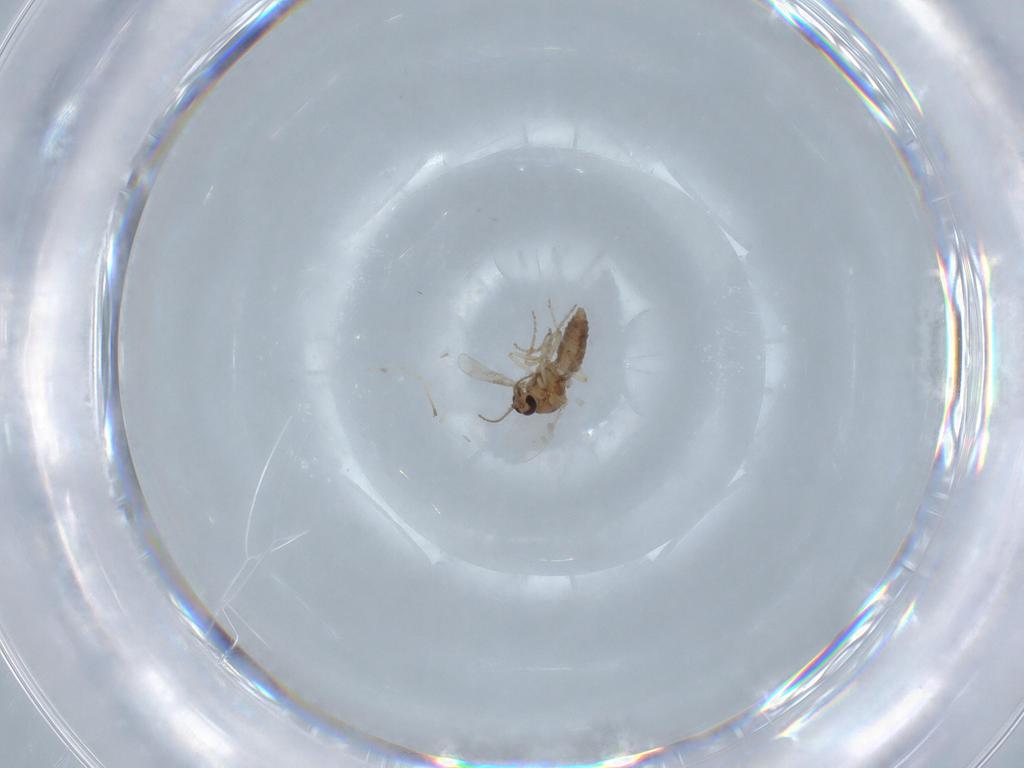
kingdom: Animalia
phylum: Arthropoda
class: Insecta
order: Diptera
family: Ceratopogonidae
